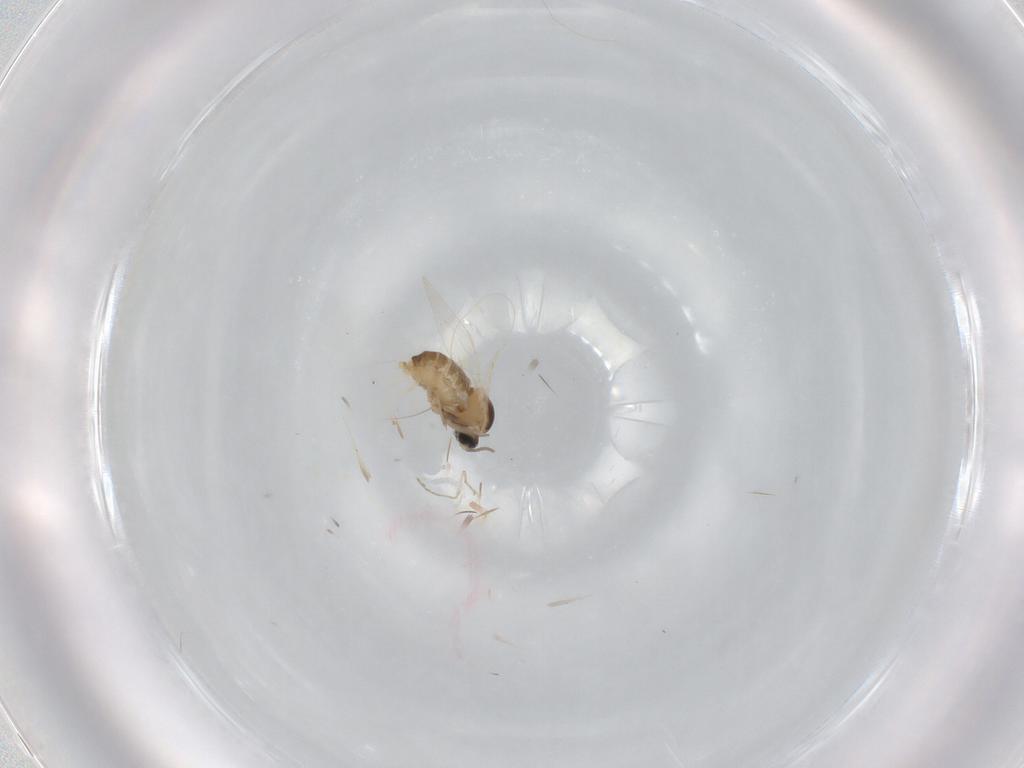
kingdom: Animalia
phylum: Arthropoda
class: Insecta
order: Diptera
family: Cecidomyiidae
